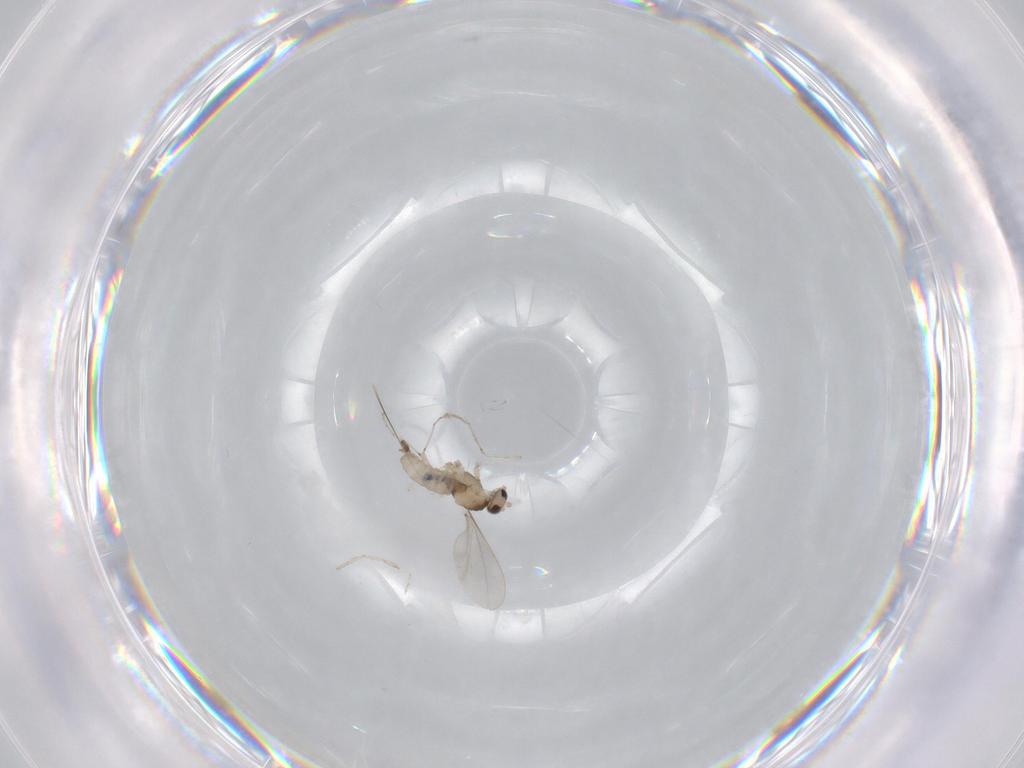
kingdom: Animalia
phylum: Arthropoda
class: Insecta
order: Diptera
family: Cecidomyiidae
